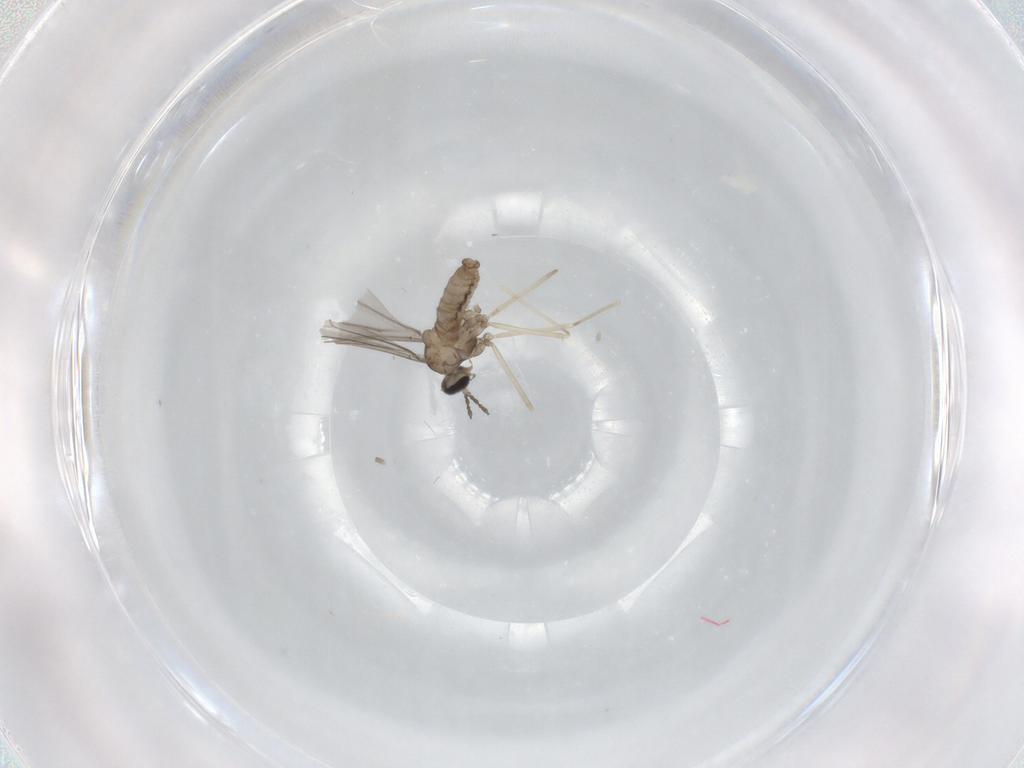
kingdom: Animalia
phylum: Arthropoda
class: Insecta
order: Diptera
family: Cecidomyiidae
